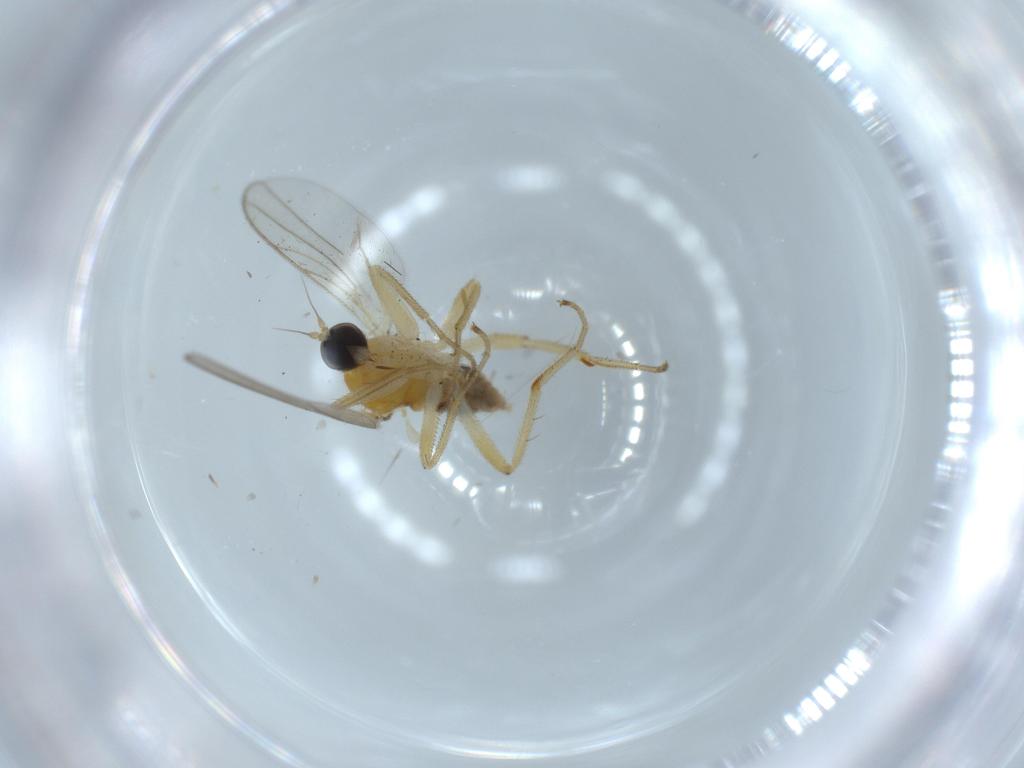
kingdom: Animalia
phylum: Arthropoda
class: Insecta
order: Diptera
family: Hybotidae
